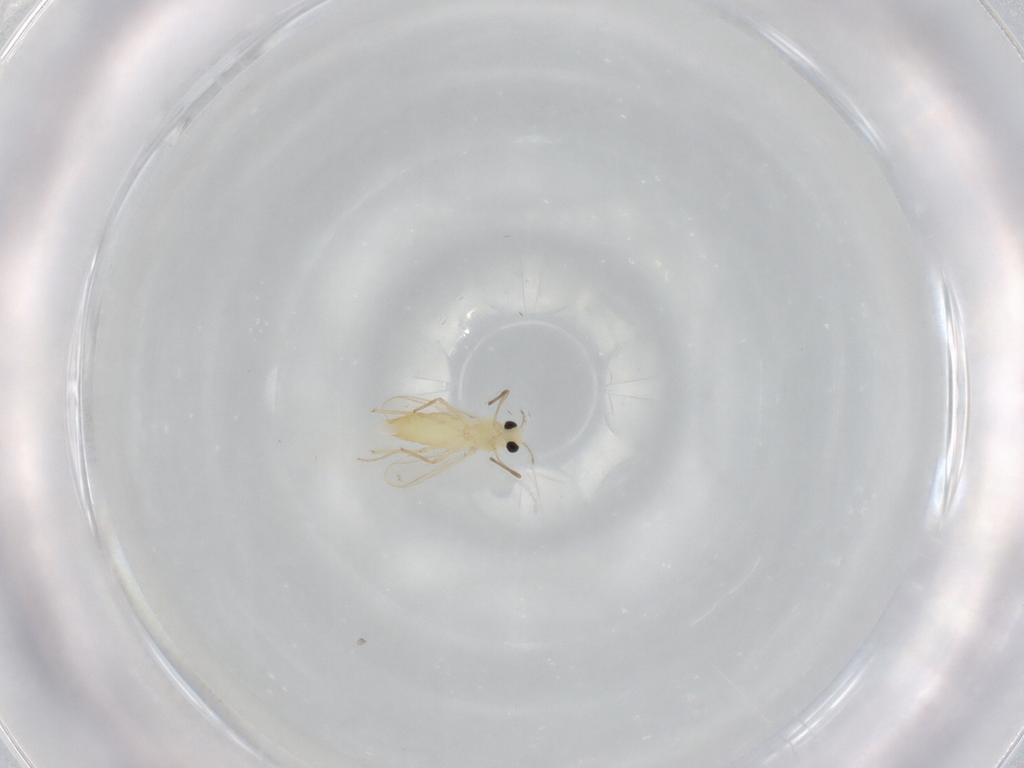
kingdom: Animalia
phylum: Arthropoda
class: Insecta
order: Diptera
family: Chironomidae
